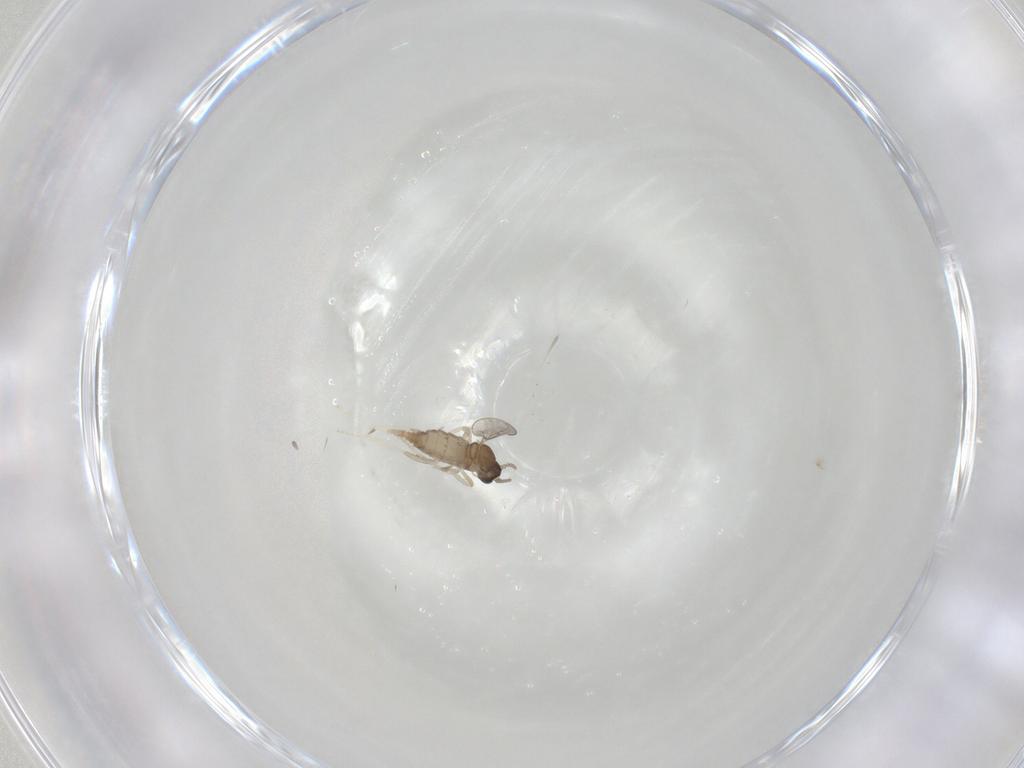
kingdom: Animalia
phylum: Arthropoda
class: Insecta
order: Diptera
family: Cecidomyiidae
